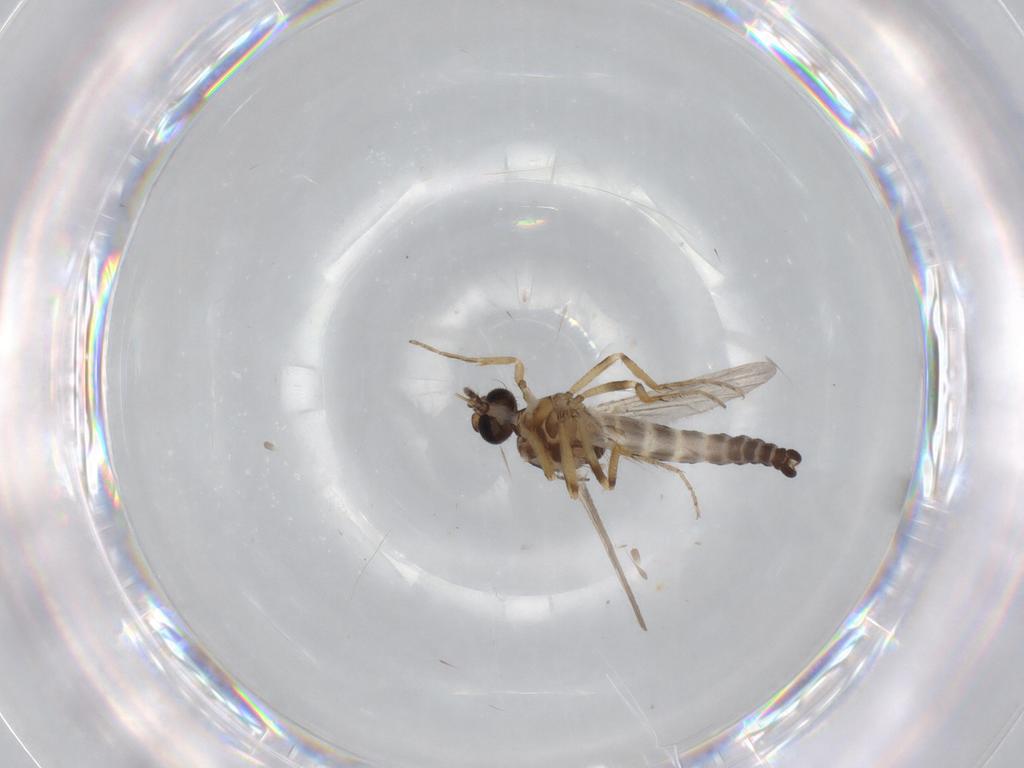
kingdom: Animalia
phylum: Arthropoda
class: Insecta
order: Diptera
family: Ceratopogonidae
